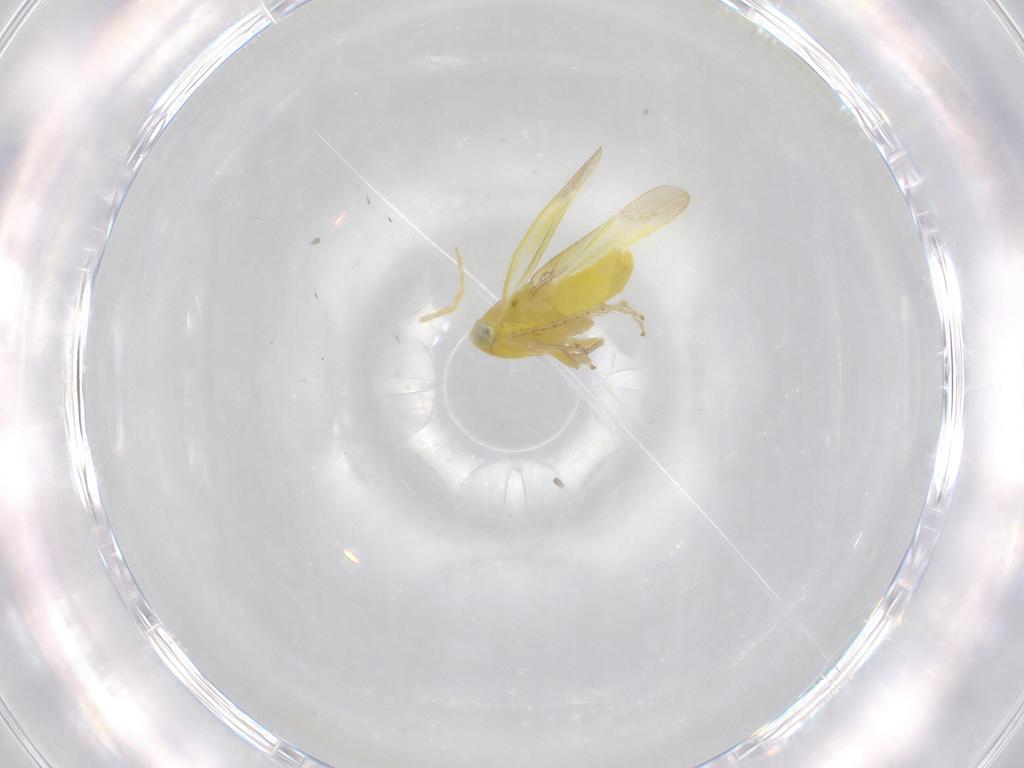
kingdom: Animalia
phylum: Arthropoda
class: Insecta
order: Hemiptera
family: Cicadellidae
